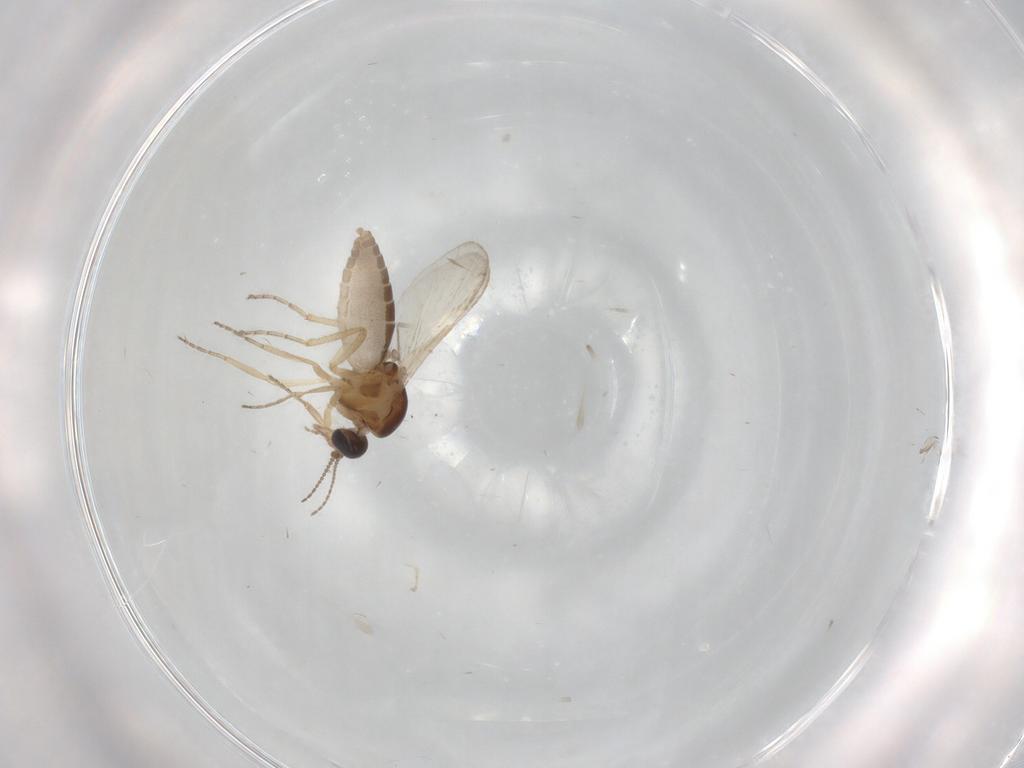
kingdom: Animalia
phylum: Arthropoda
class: Insecta
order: Diptera
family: Ceratopogonidae
